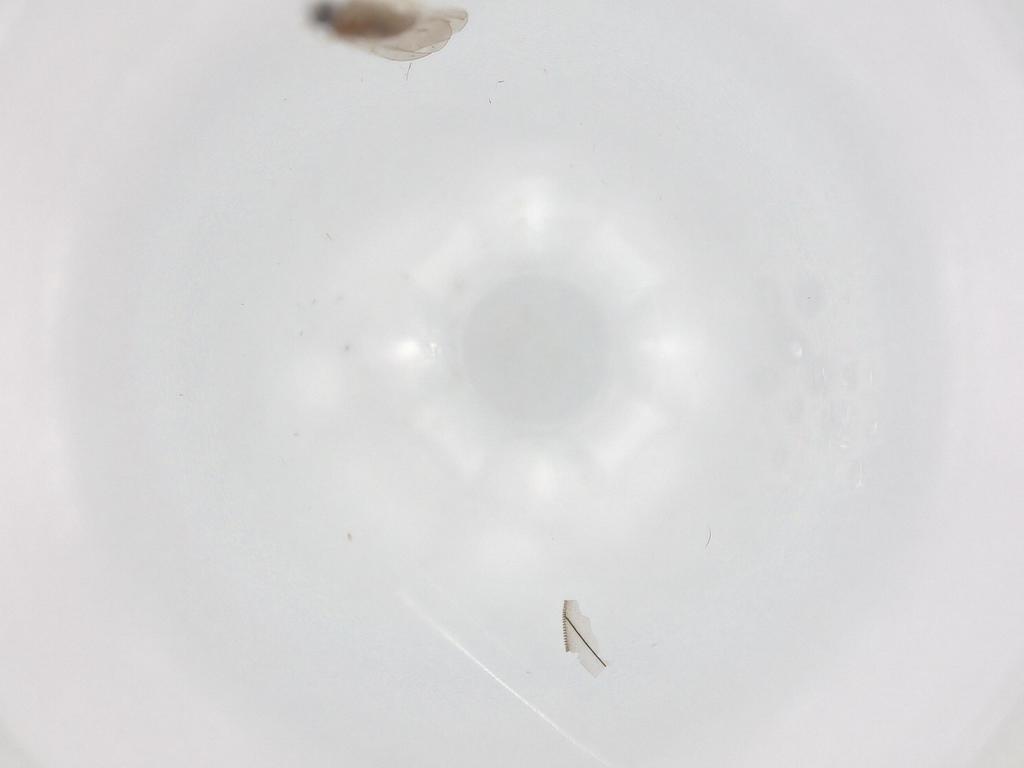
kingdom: Animalia
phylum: Arthropoda
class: Insecta
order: Diptera
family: Cecidomyiidae
